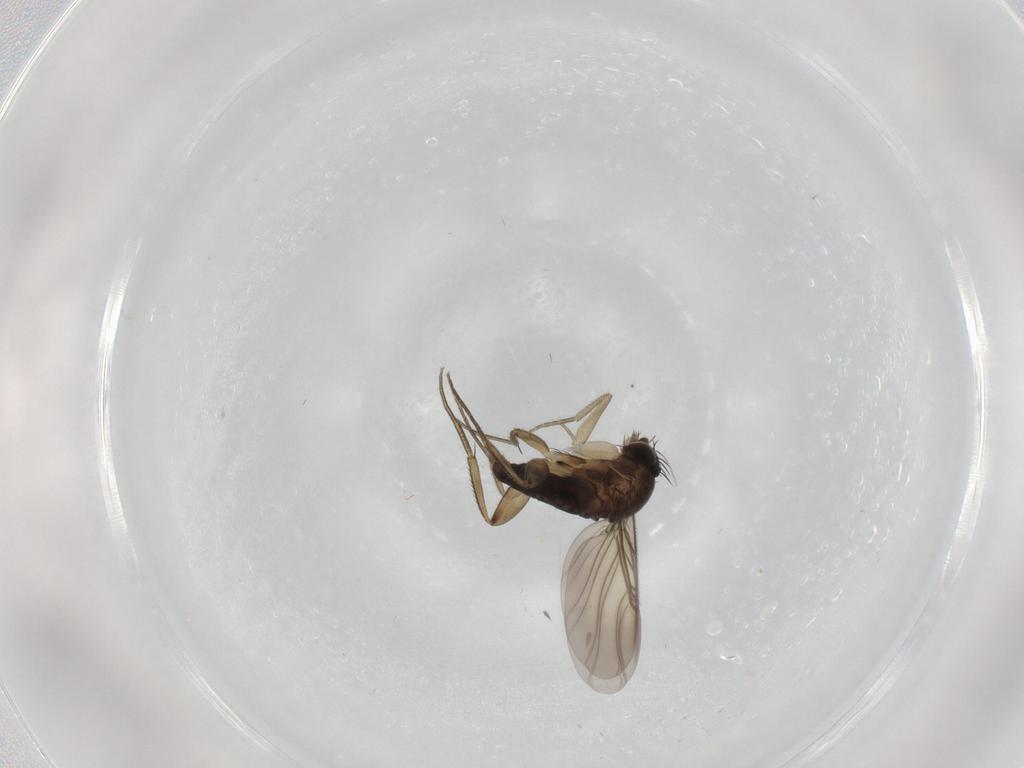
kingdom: Animalia
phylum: Arthropoda
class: Insecta
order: Diptera
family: Phoridae
